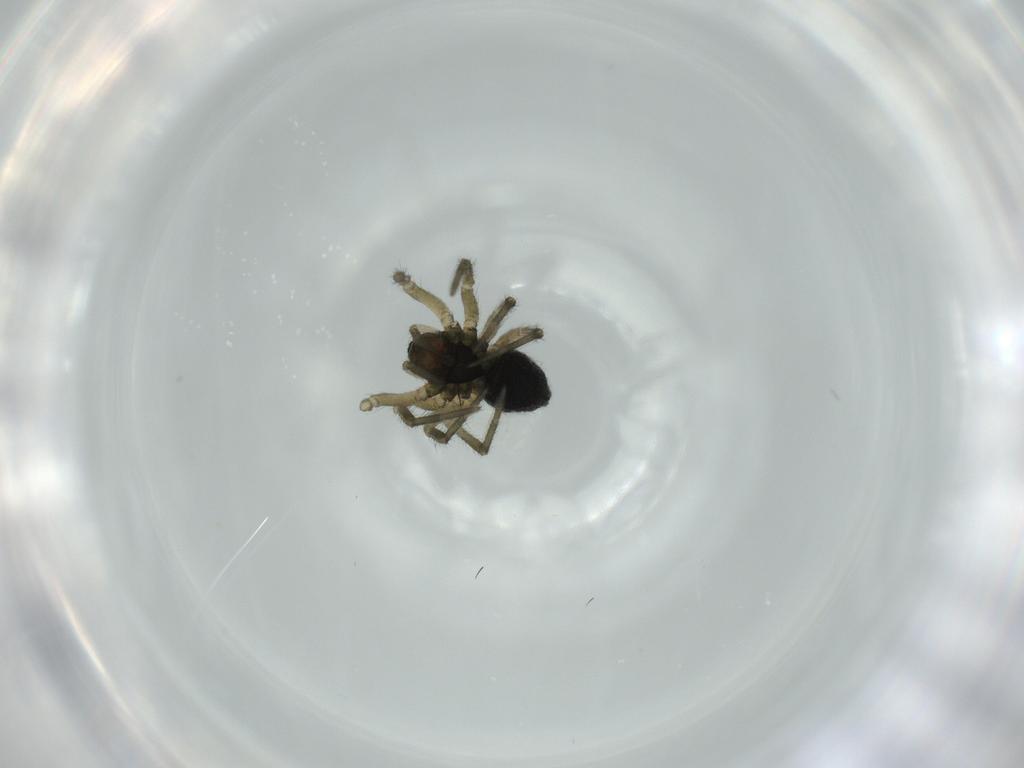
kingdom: Animalia
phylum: Arthropoda
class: Arachnida
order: Araneae
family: Linyphiidae
